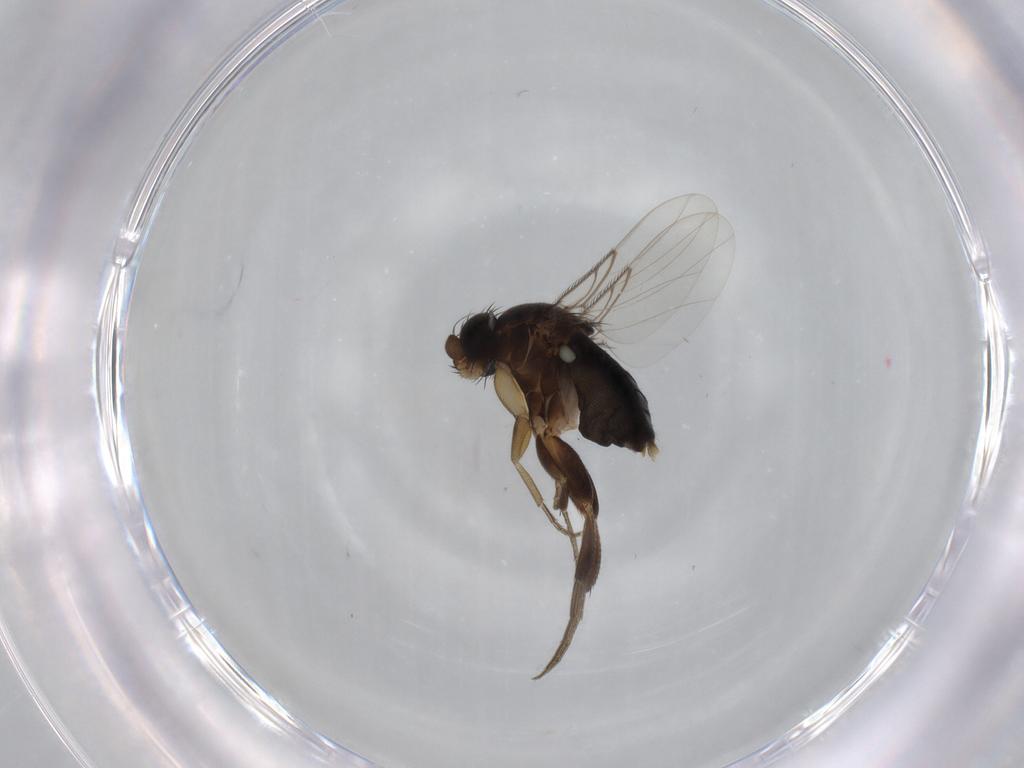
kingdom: Animalia
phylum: Arthropoda
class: Insecta
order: Diptera
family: Phoridae
